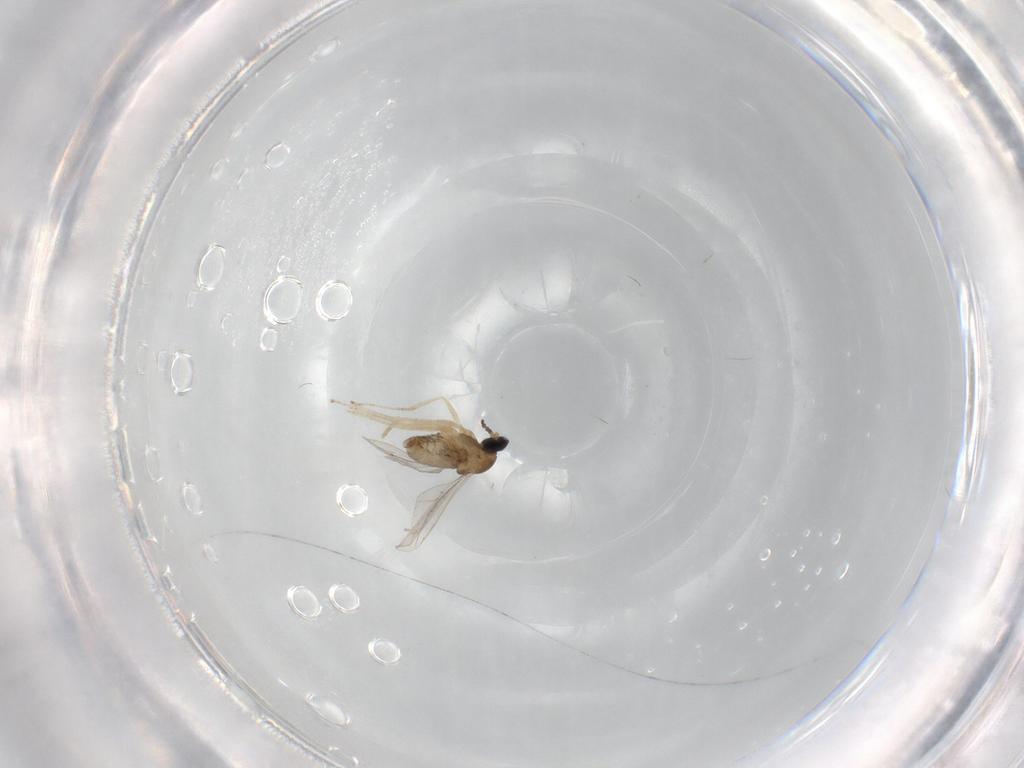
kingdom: Animalia
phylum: Arthropoda
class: Insecta
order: Diptera
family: Cecidomyiidae
